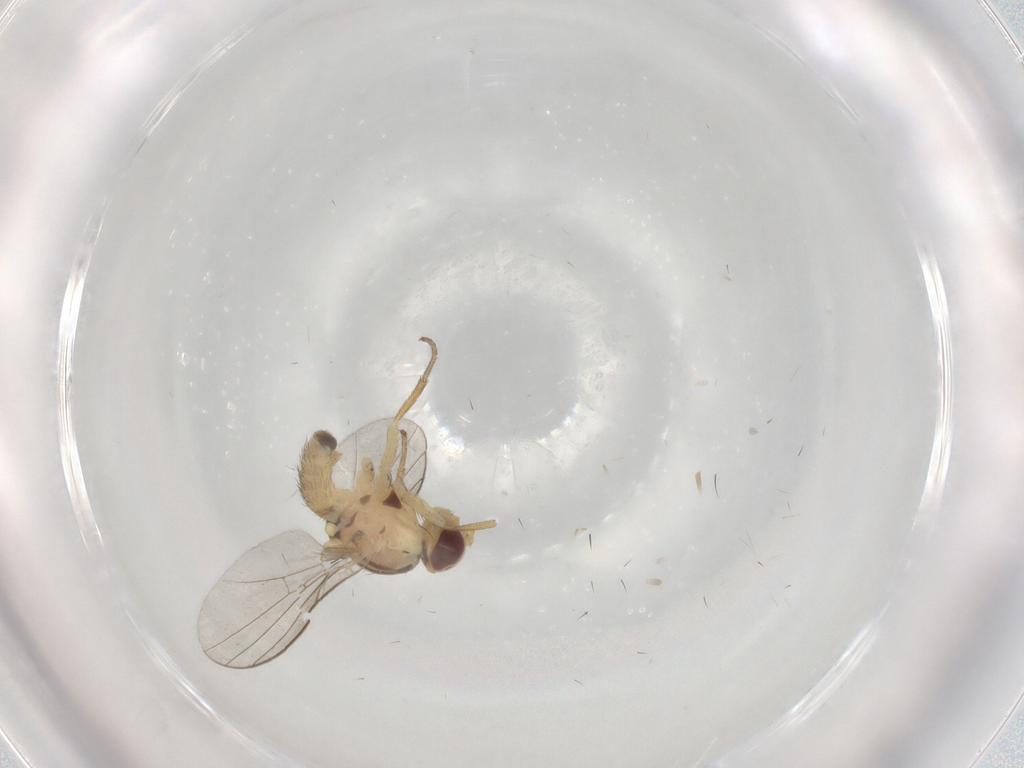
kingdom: Animalia
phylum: Arthropoda
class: Insecta
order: Diptera
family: Agromyzidae
